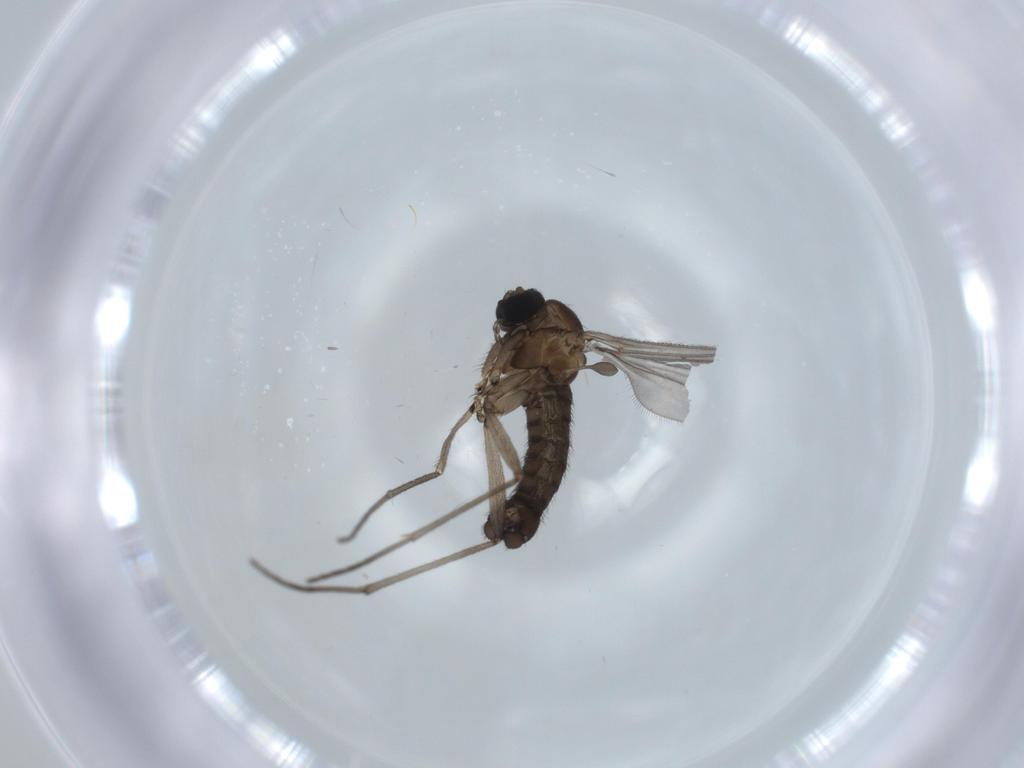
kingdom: Animalia
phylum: Arthropoda
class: Insecta
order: Diptera
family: Sciaridae
